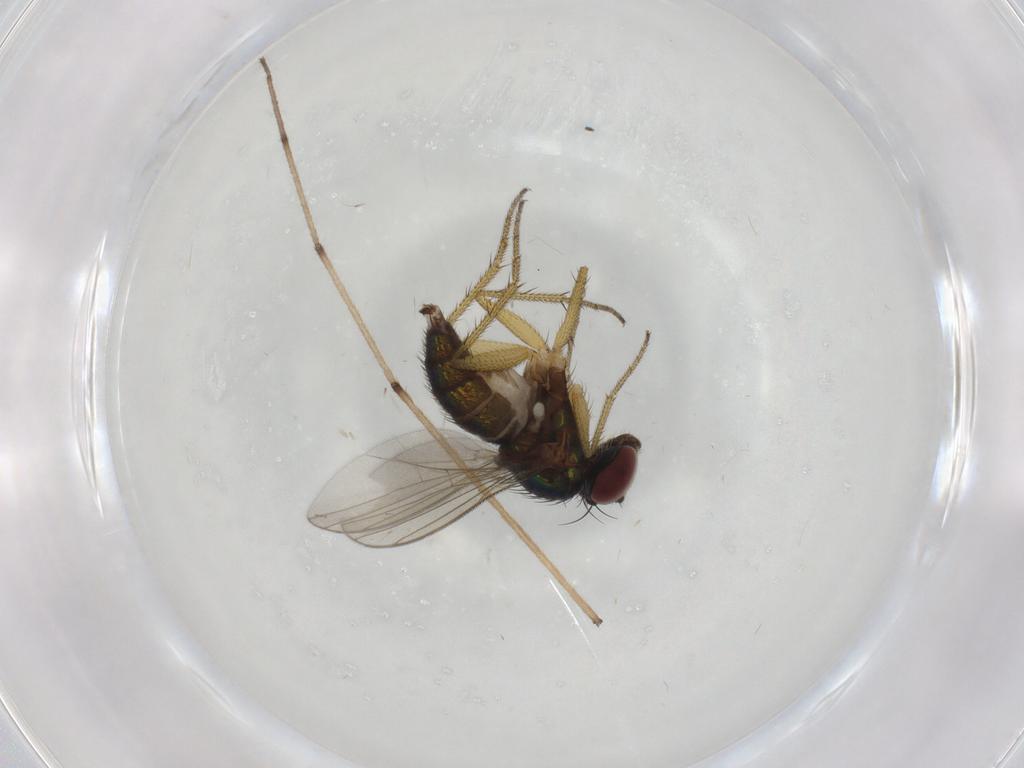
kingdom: Animalia
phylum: Arthropoda
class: Insecta
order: Diptera
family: Dolichopodidae
